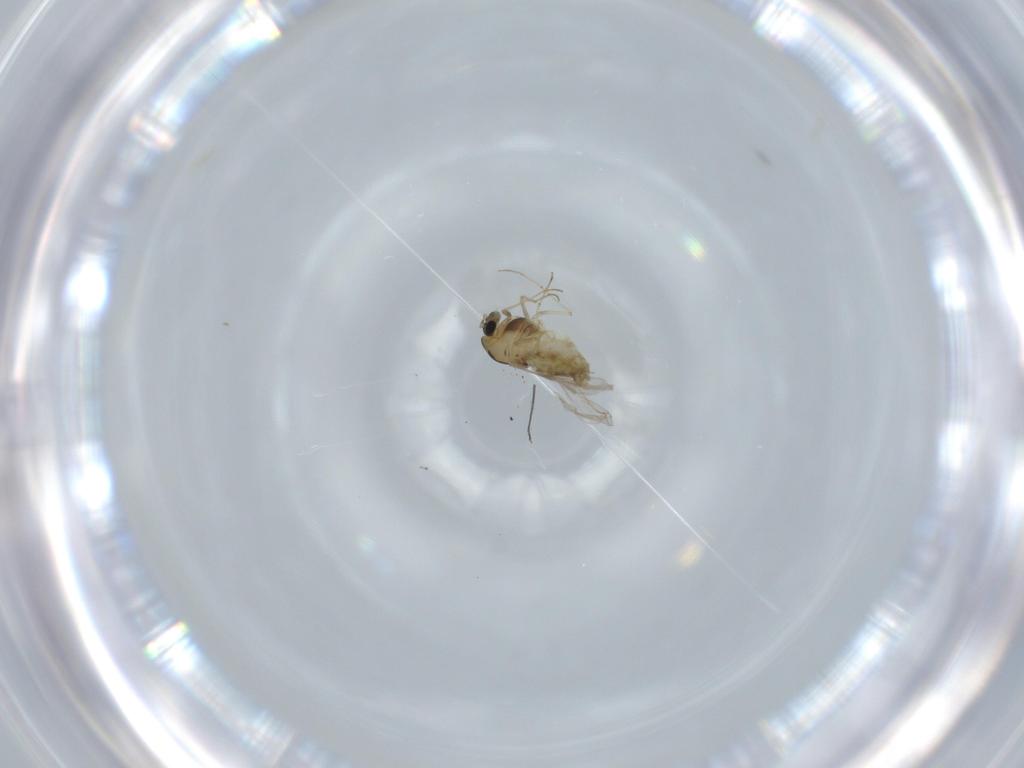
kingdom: Animalia
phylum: Arthropoda
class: Insecta
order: Diptera
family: Chironomidae
